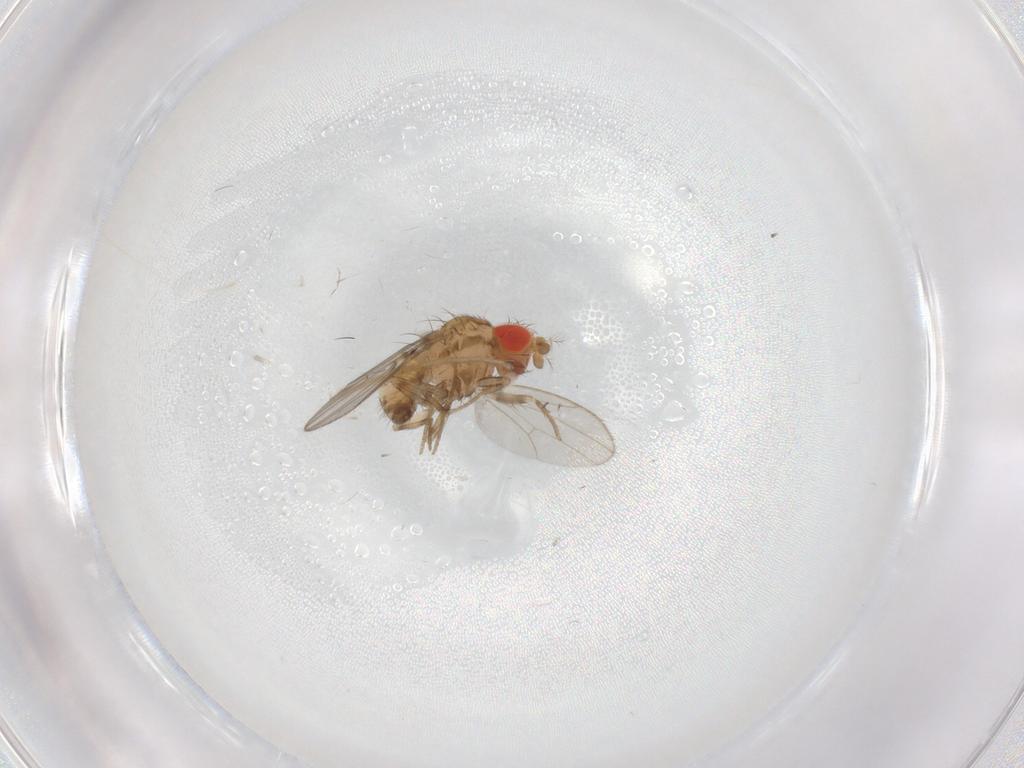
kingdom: Animalia
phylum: Arthropoda
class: Insecta
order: Diptera
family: Drosophilidae
